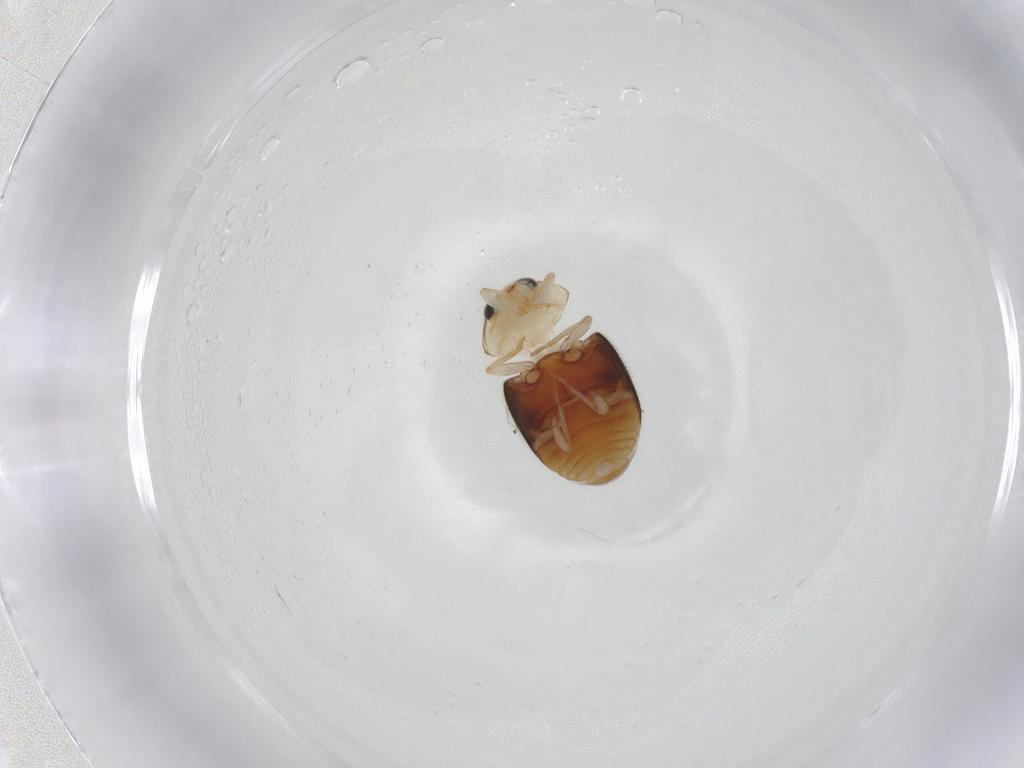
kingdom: Animalia
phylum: Arthropoda
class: Insecta
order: Coleoptera
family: Coccinellidae
